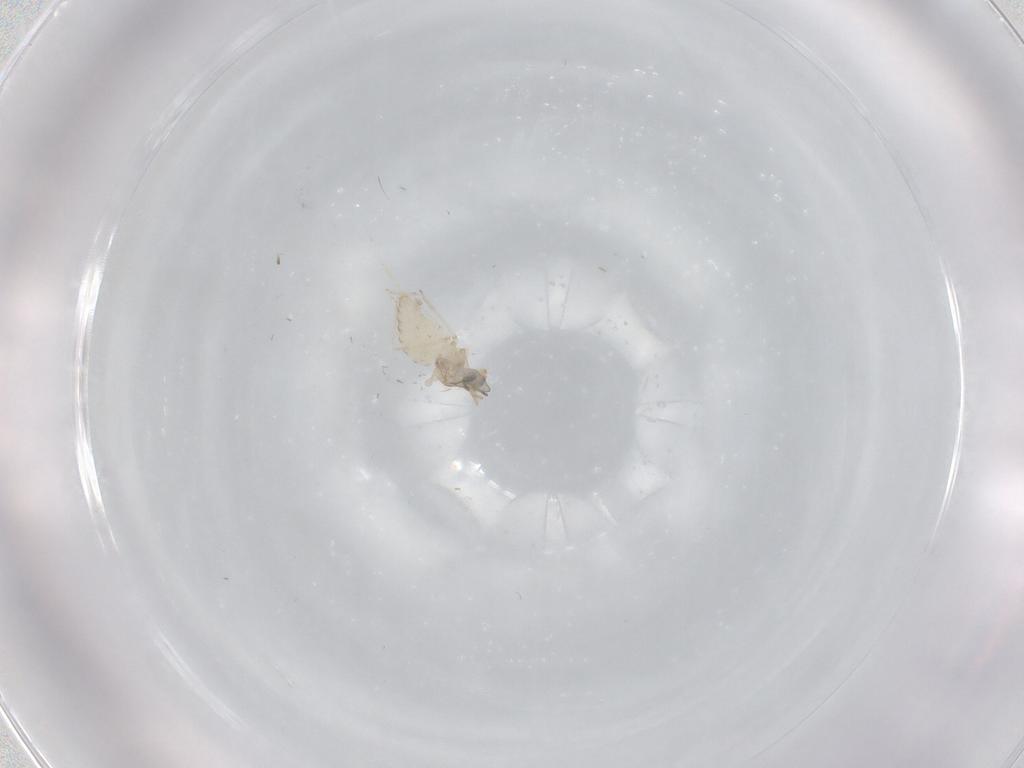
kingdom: Animalia
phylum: Arthropoda
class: Insecta
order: Diptera
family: Cecidomyiidae
